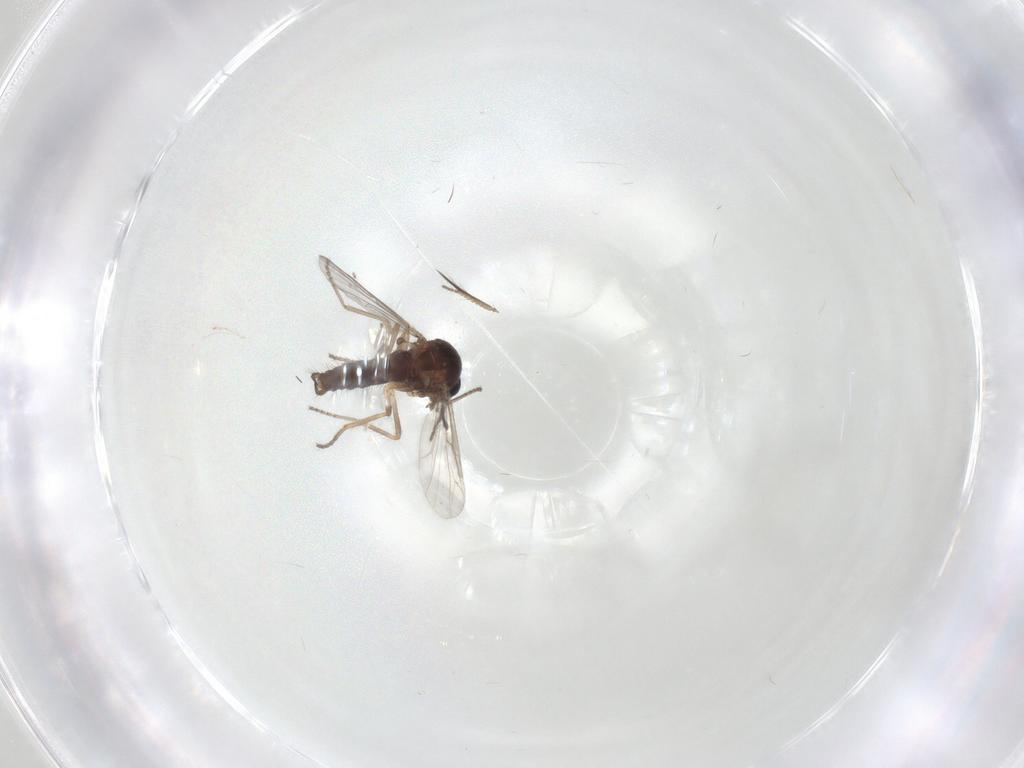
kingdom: Animalia
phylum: Arthropoda
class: Insecta
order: Diptera
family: Ceratopogonidae
